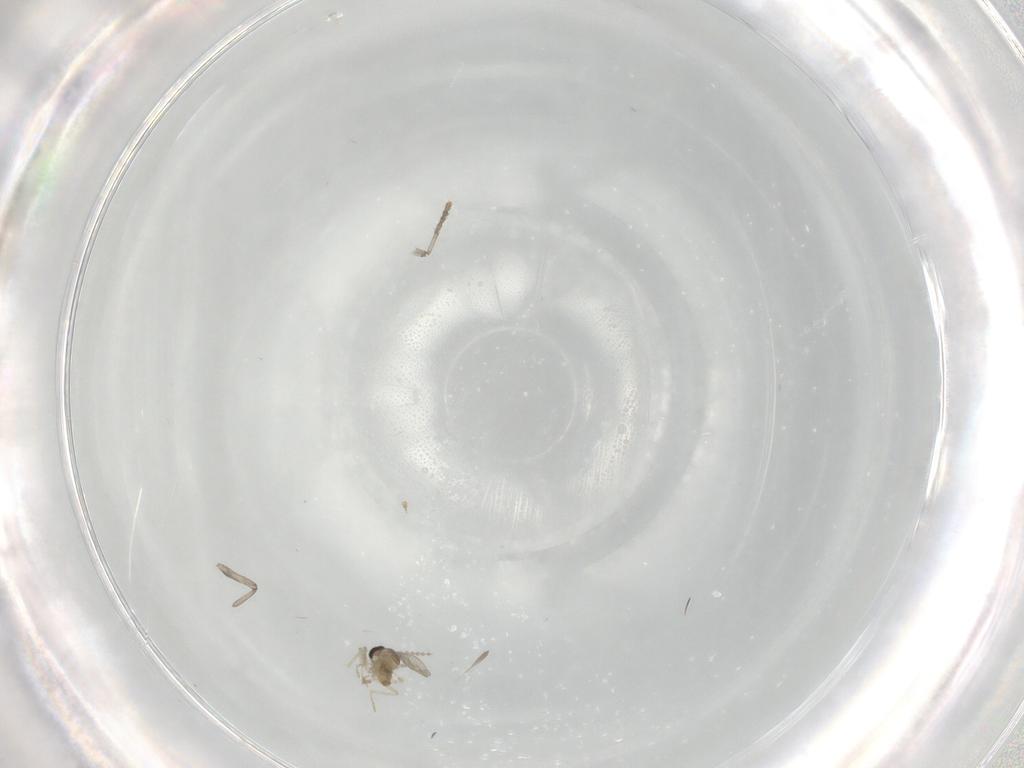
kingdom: Animalia
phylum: Arthropoda
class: Insecta
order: Diptera
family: Cecidomyiidae
